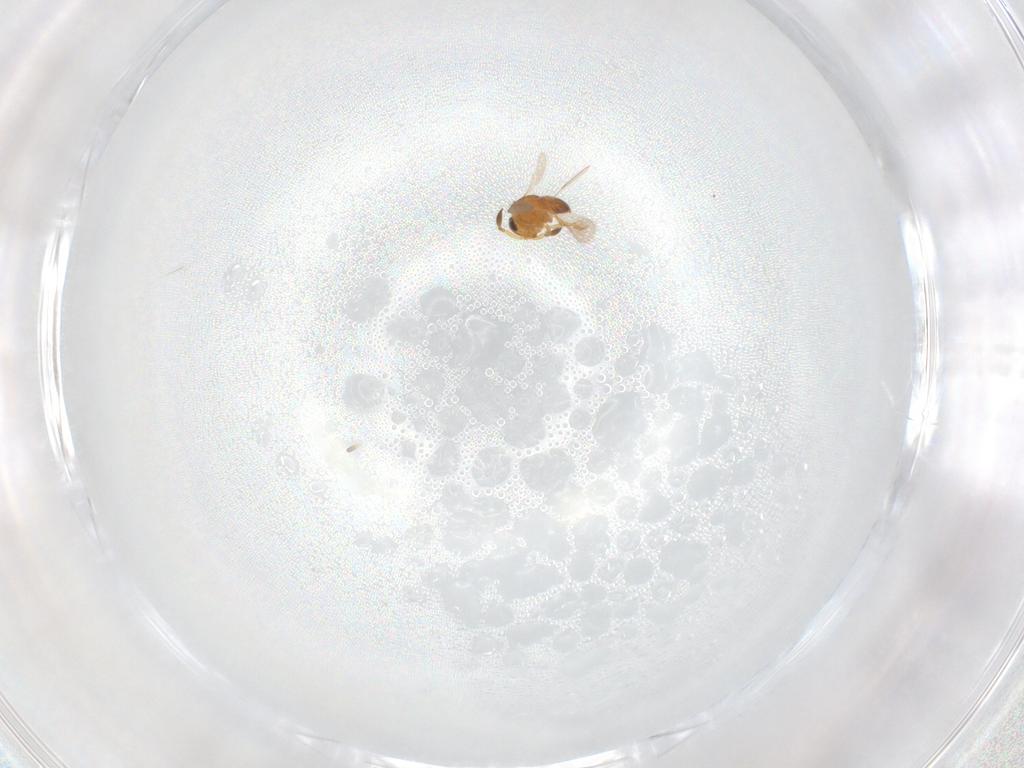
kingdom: Animalia
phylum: Arthropoda
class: Insecta
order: Hymenoptera
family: Scelionidae
